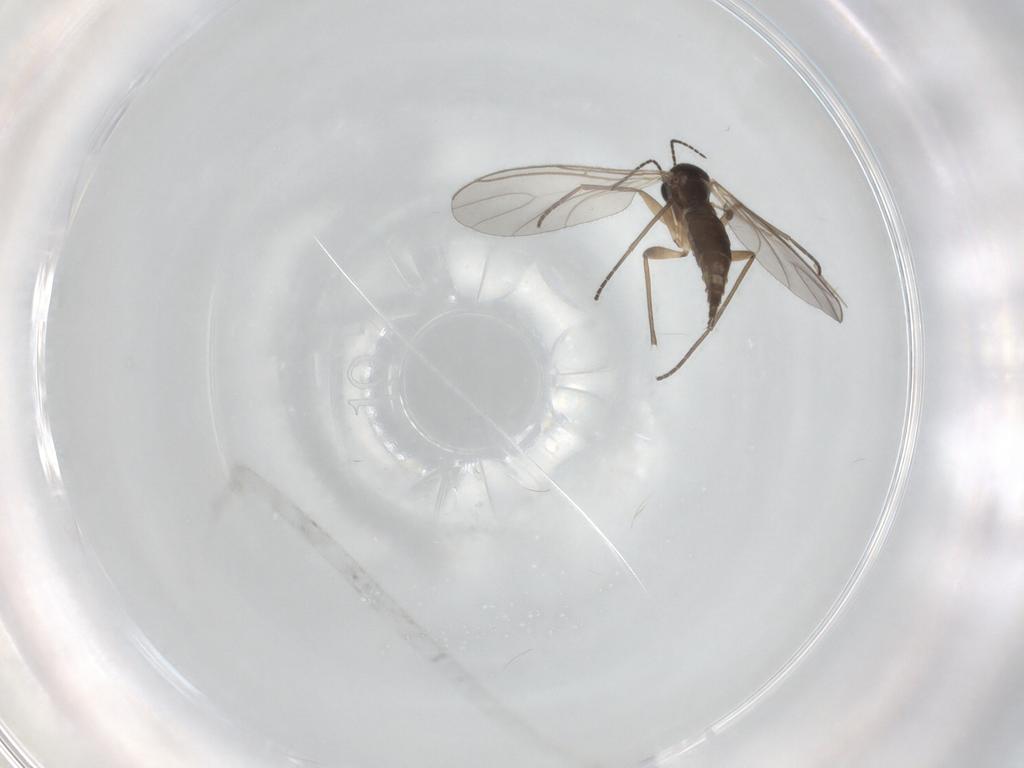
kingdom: Animalia
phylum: Arthropoda
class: Insecta
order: Diptera
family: Sciaridae
